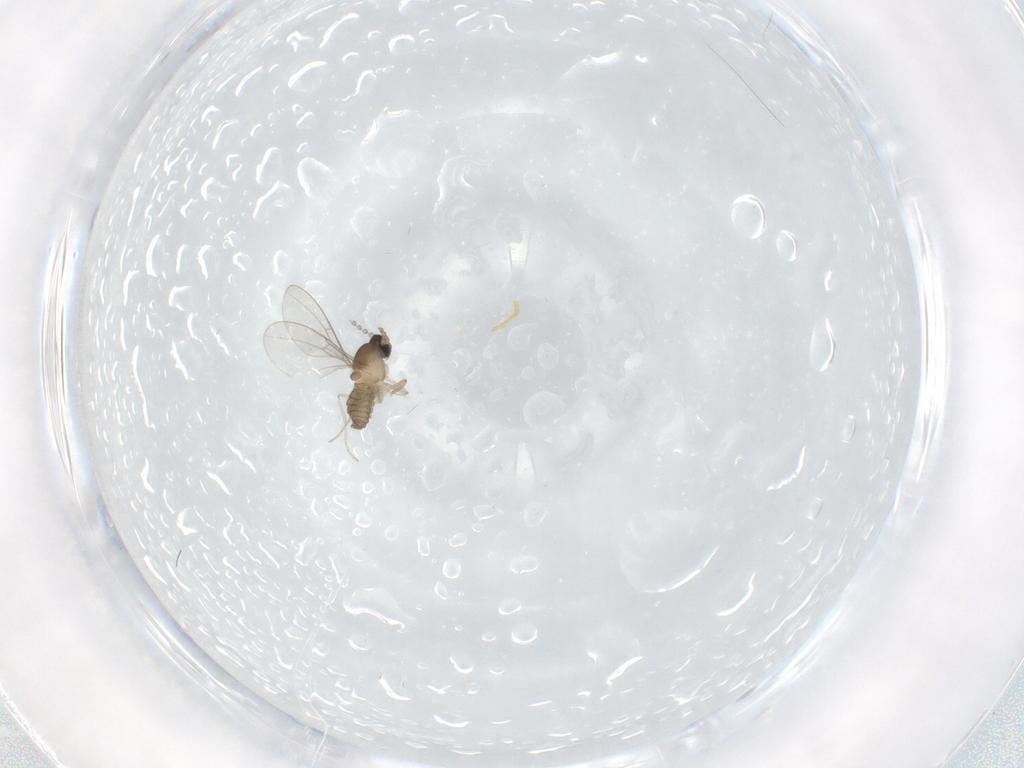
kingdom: Animalia
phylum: Arthropoda
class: Insecta
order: Diptera
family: Cecidomyiidae
